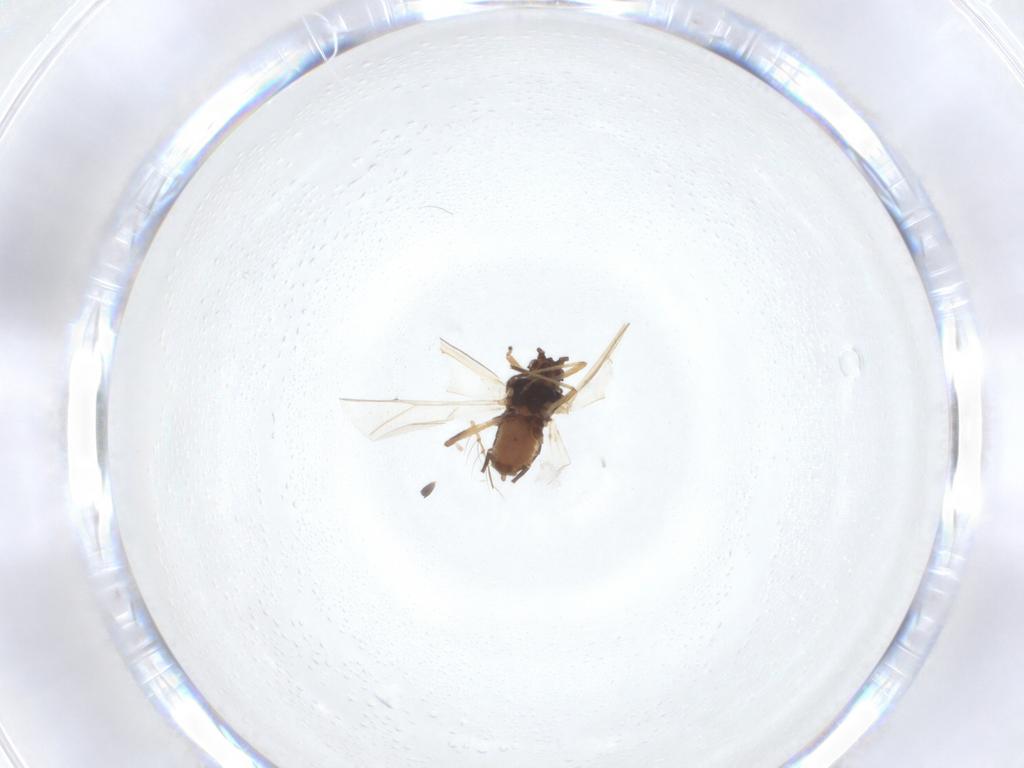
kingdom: Animalia
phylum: Arthropoda
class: Insecta
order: Hemiptera
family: Aphididae
